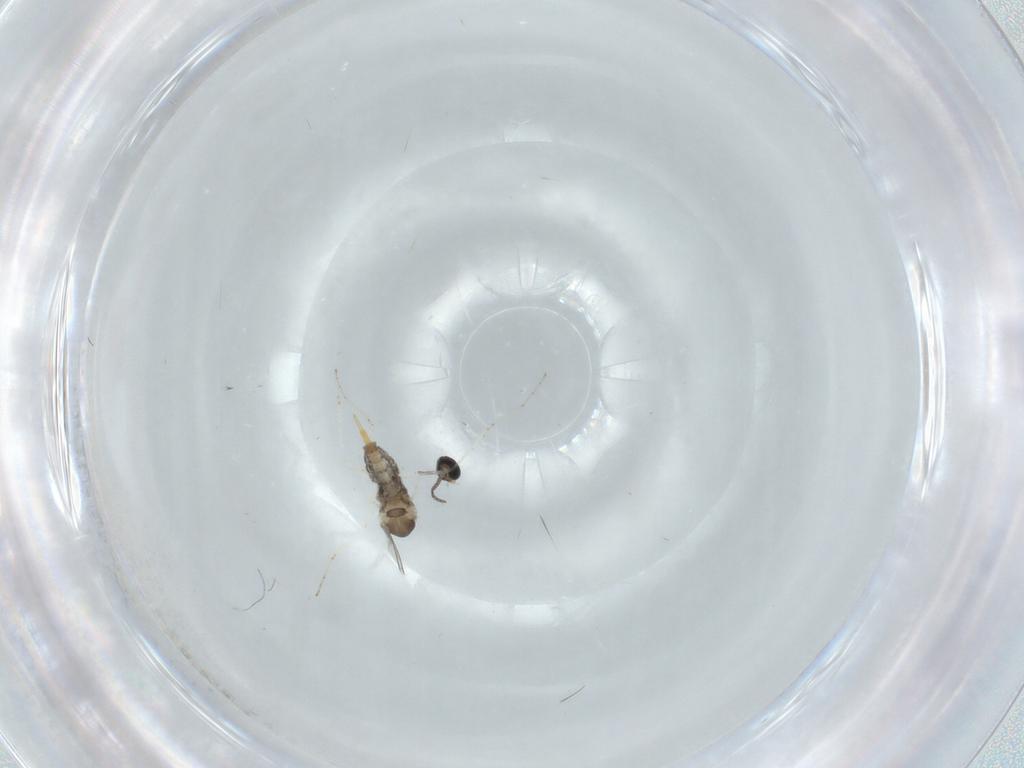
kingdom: Animalia
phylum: Arthropoda
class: Insecta
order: Diptera
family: Cecidomyiidae
